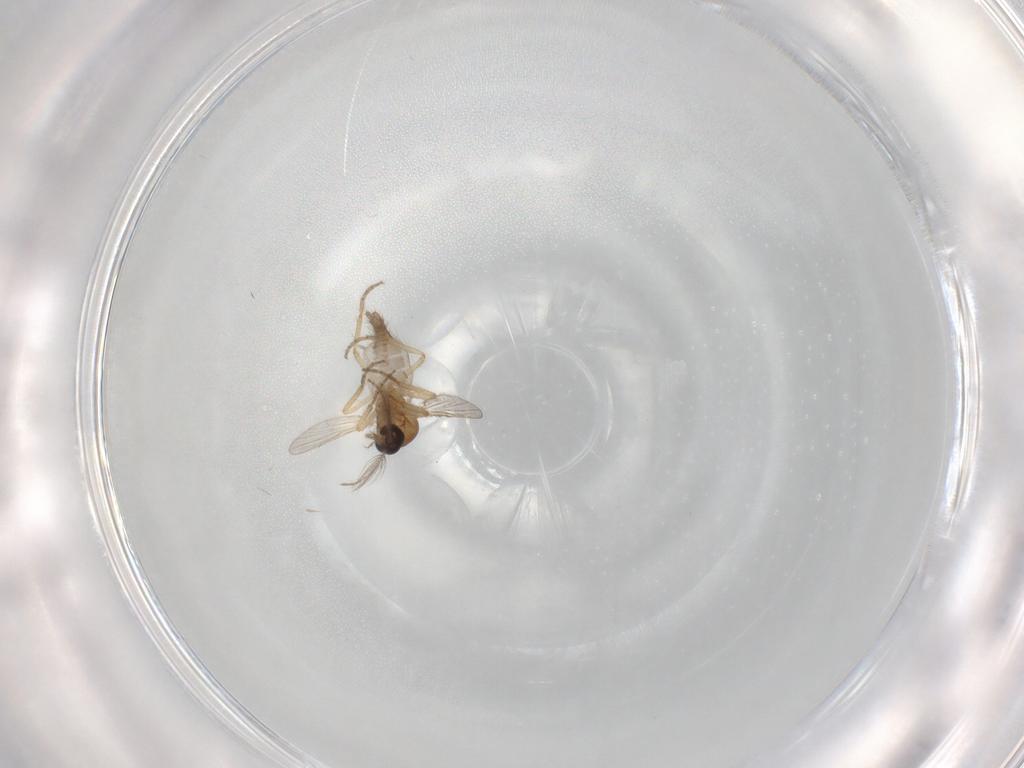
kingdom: Animalia
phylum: Arthropoda
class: Insecta
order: Diptera
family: Ceratopogonidae
